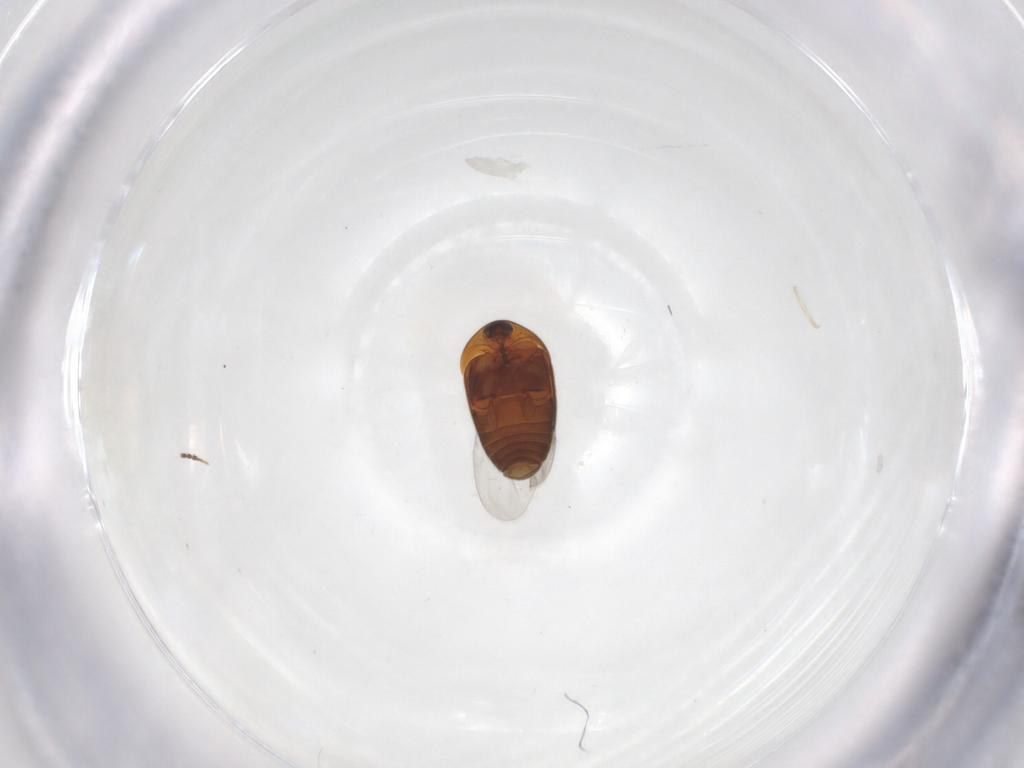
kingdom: Animalia
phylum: Arthropoda
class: Insecta
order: Coleoptera
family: Corylophidae
